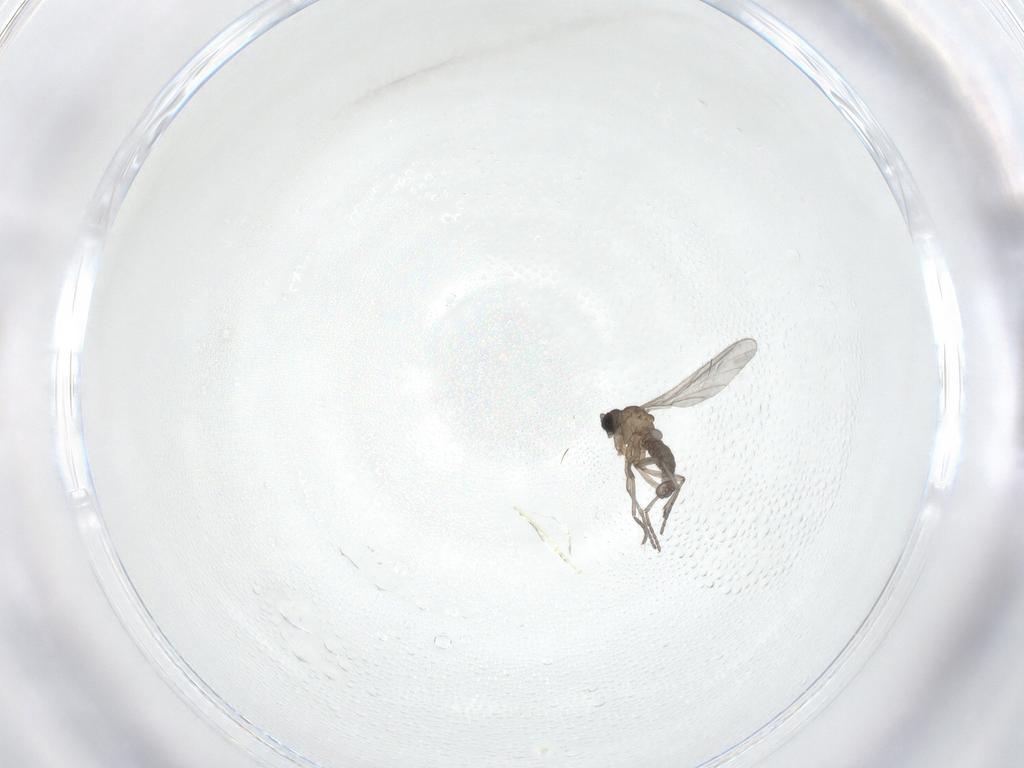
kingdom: Animalia
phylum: Arthropoda
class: Insecta
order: Diptera
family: Sciaridae
